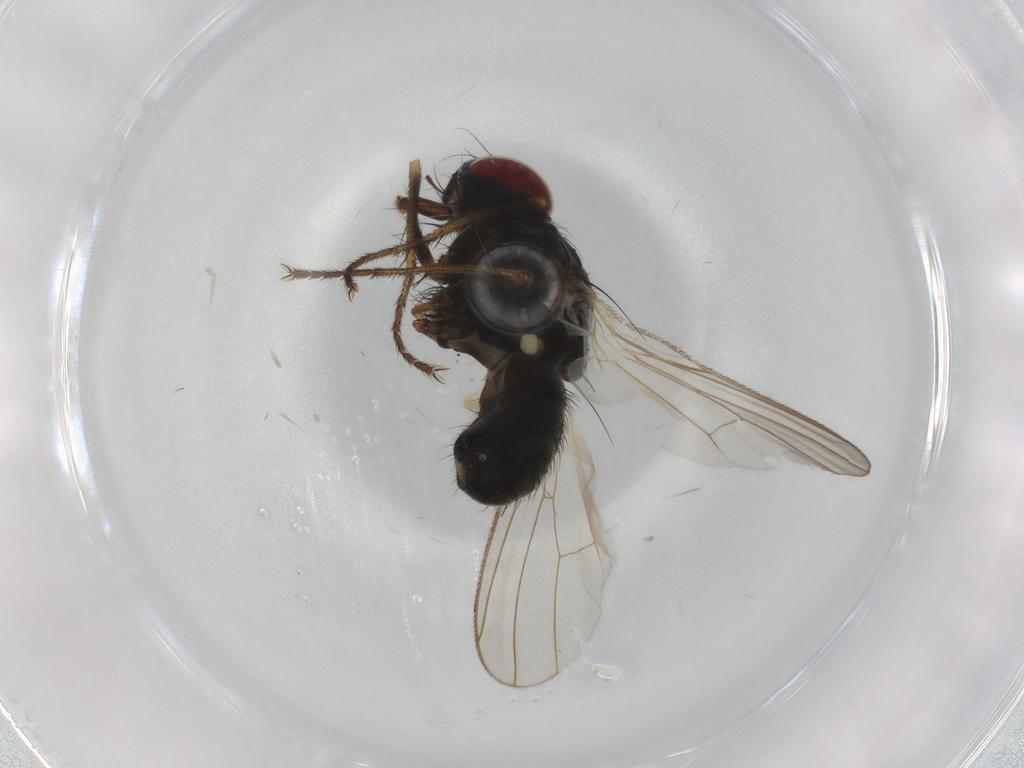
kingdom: Animalia
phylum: Arthropoda
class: Insecta
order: Diptera
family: Muscidae
